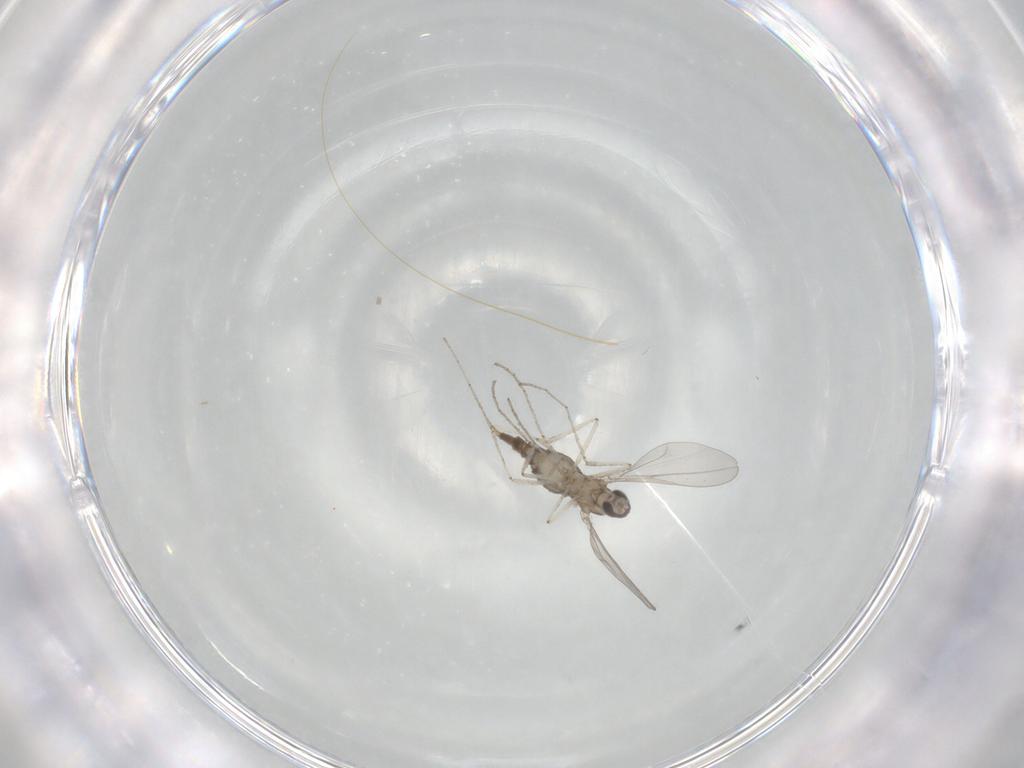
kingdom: Animalia
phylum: Arthropoda
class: Insecta
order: Diptera
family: Cecidomyiidae
